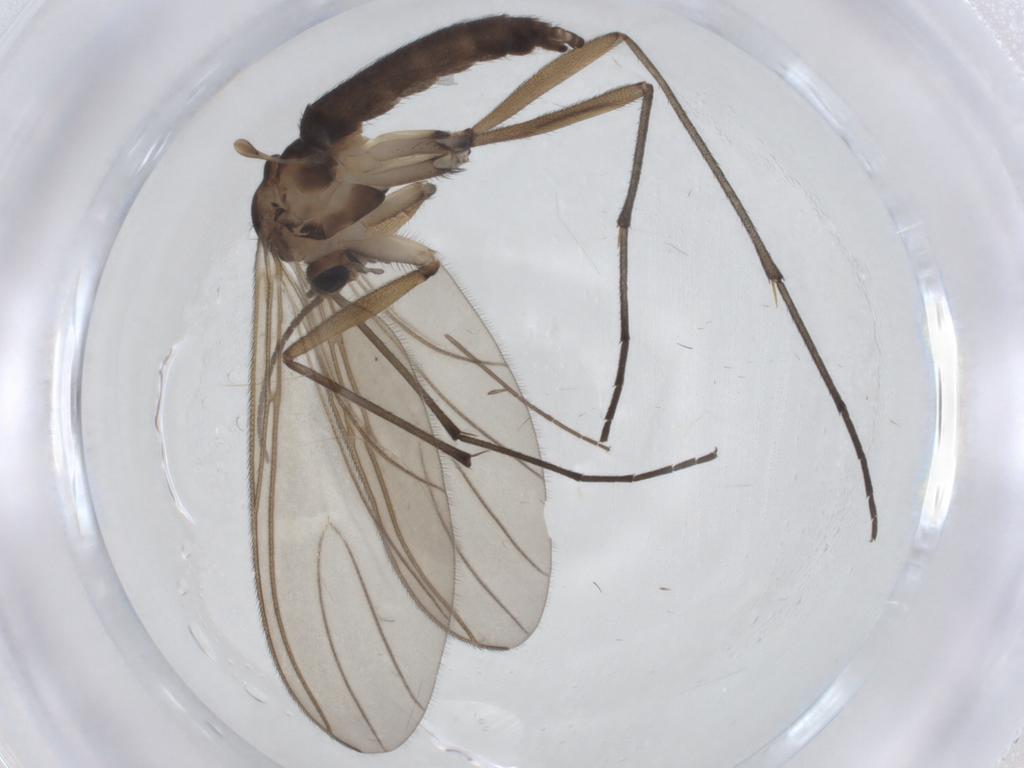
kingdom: Animalia
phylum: Arthropoda
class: Insecta
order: Diptera
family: Sciaridae
